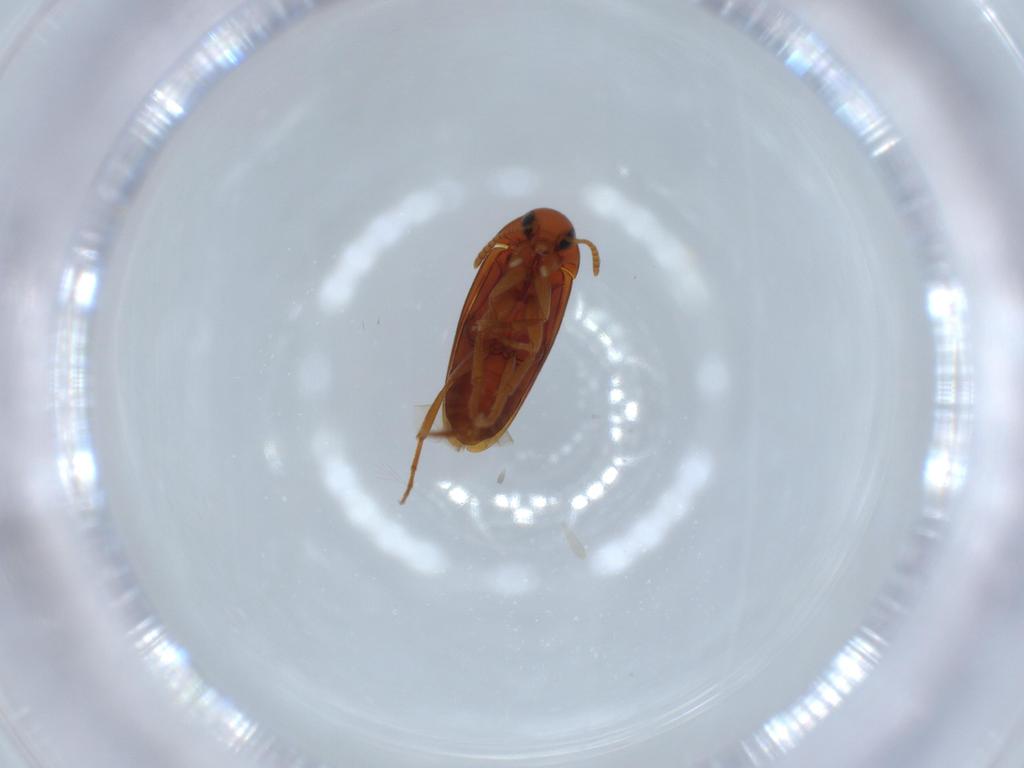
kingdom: Animalia
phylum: Arthropoda
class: Insecta
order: Coleoptera
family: Scraptiidae
